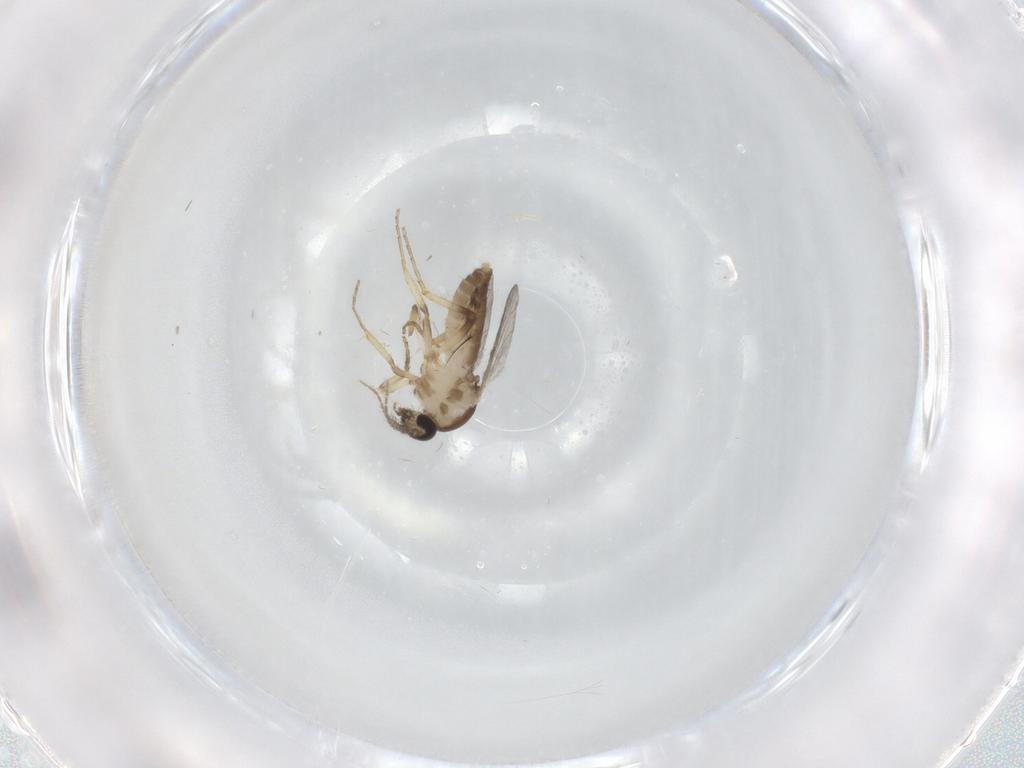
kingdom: Animalia
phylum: Arthropoda
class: Insecta
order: Diptera
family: Ceratopogonidae
